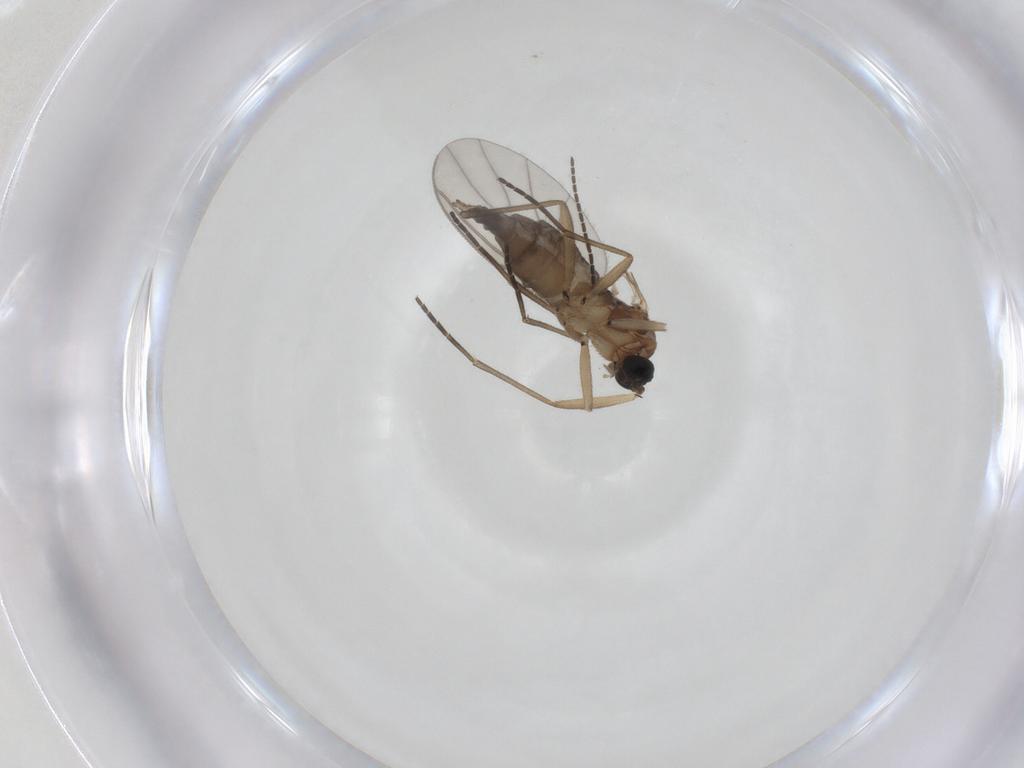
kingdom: Animalia
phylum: Arthropoda
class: Insecta
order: Diptera
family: Sciaridae
